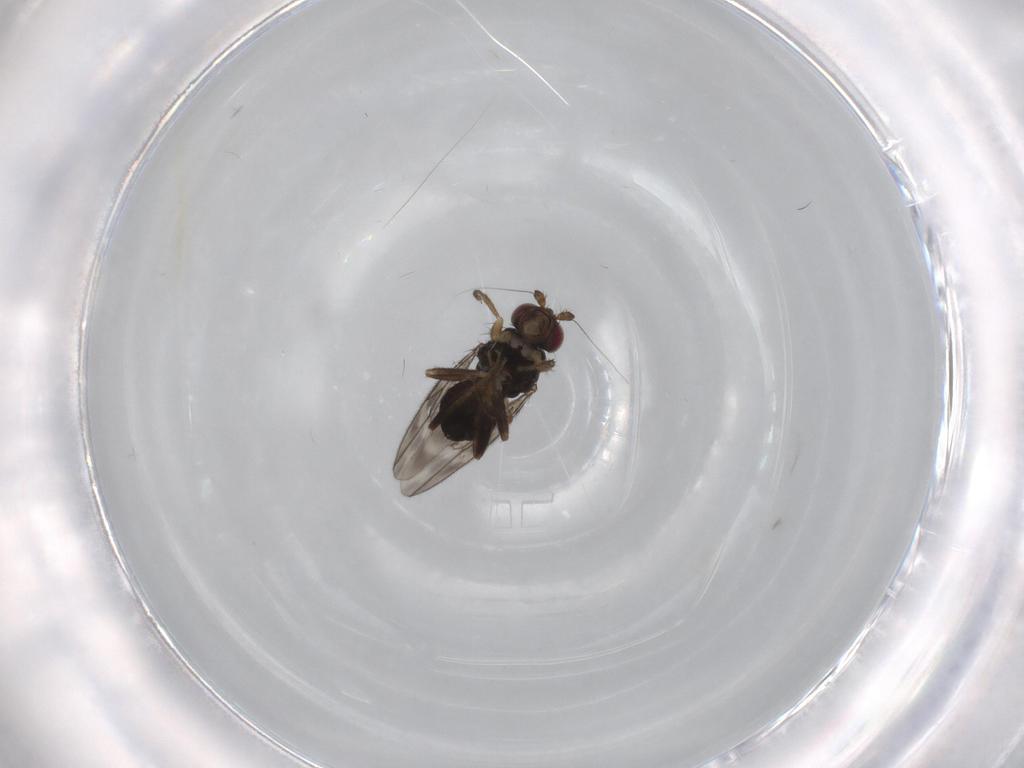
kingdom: Animalia
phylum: Arthropoda
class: Insecta
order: Diptera
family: Sphaeroceridae
